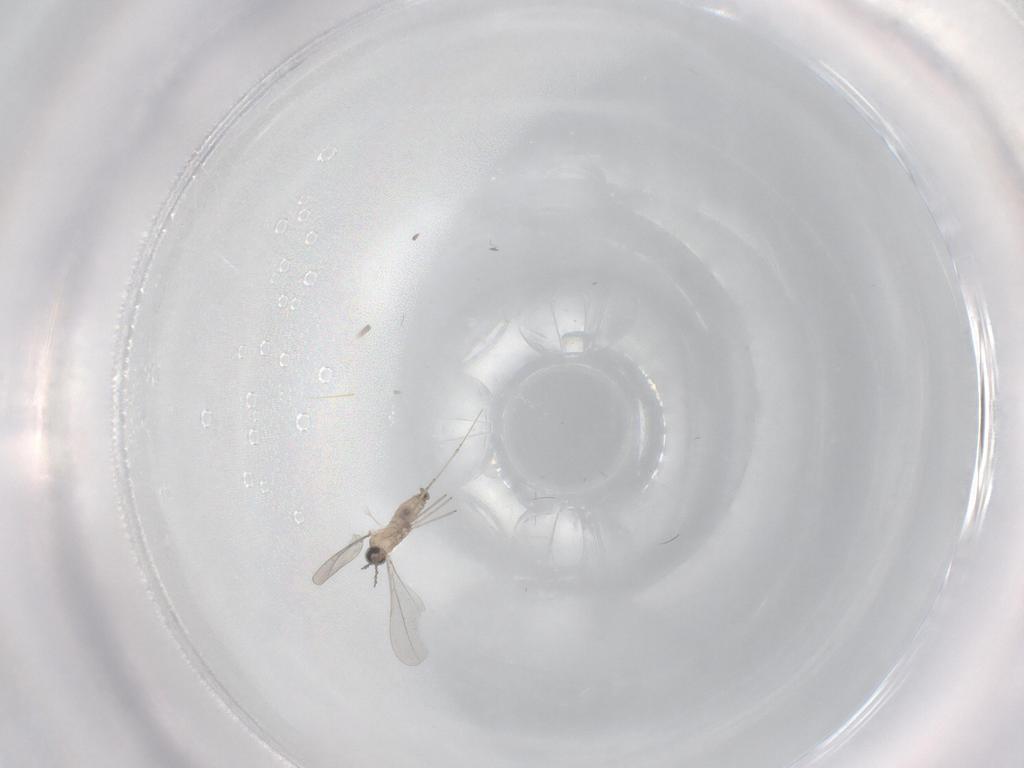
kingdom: Animalia
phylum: Arthropoda
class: Insecta
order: Diptera
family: Cecidomyiidae
